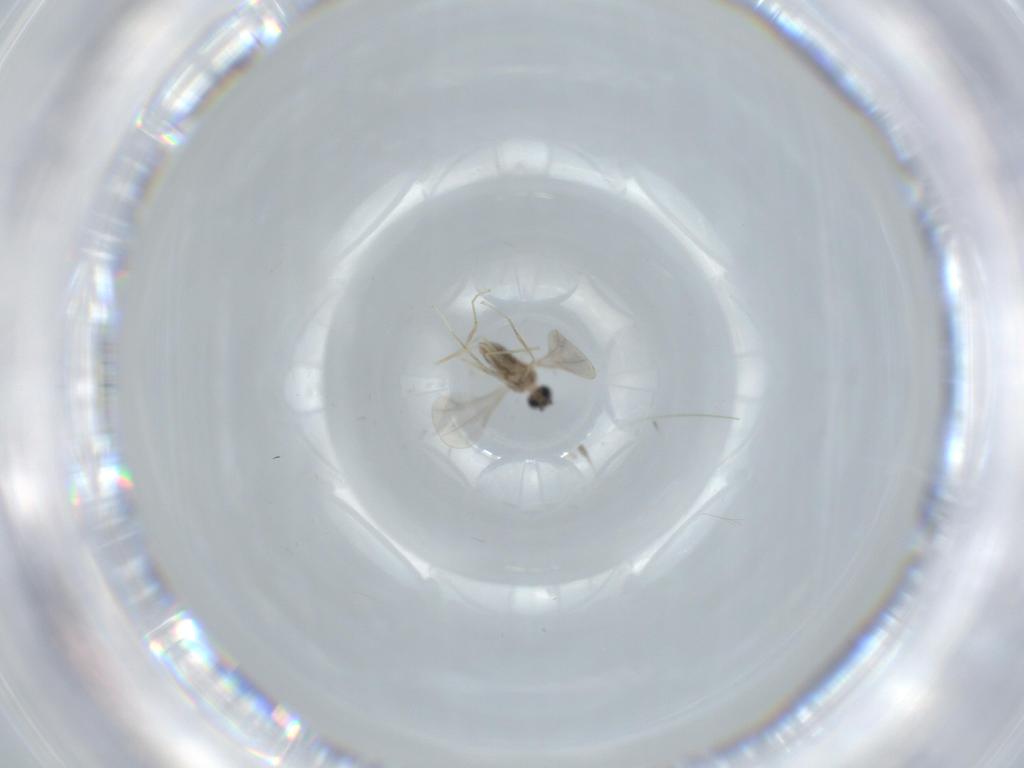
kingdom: Animalia
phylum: Arthropoda
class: Insecta
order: Diptera
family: Cecidomyiidae
